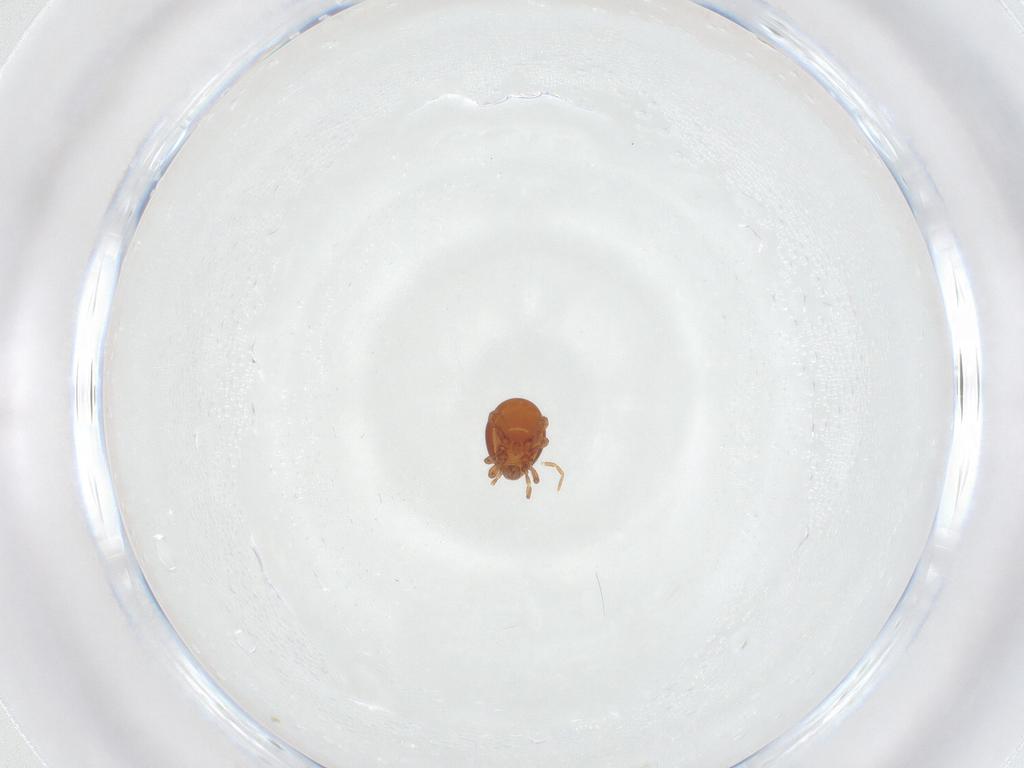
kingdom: Animalia
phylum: Arthropoda
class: Arachnida
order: Mesostigmata
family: Parasitidae
